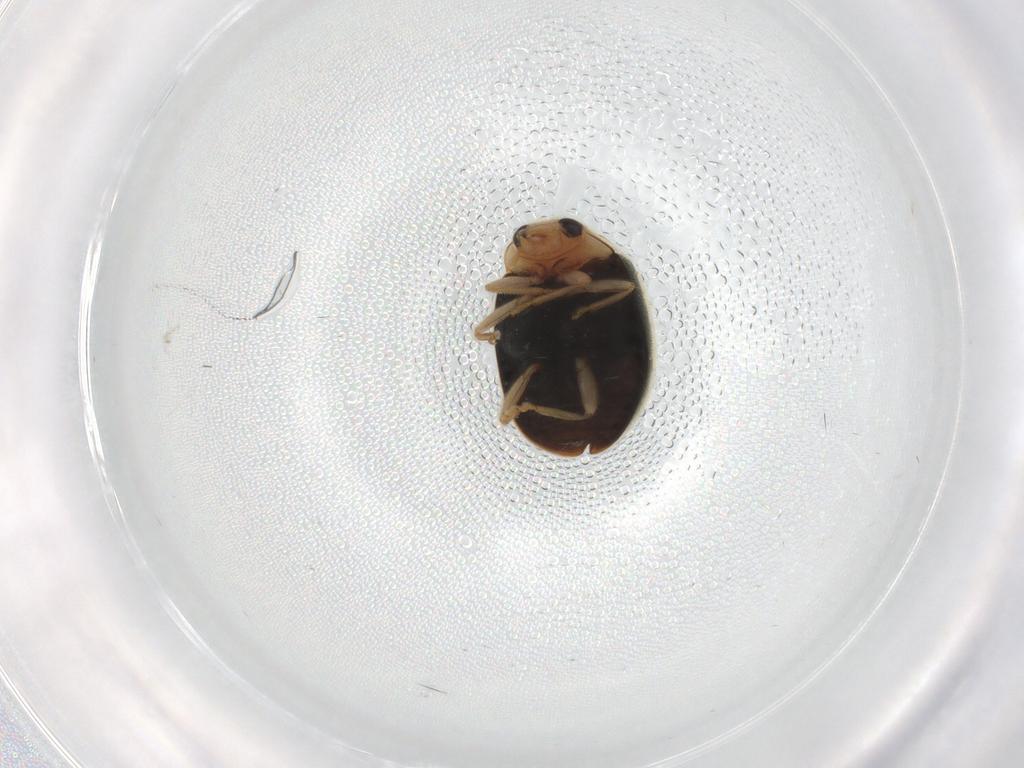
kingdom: Animalia
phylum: Arthropoda
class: Insecta
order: Coleoptera
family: Coccinellidae
